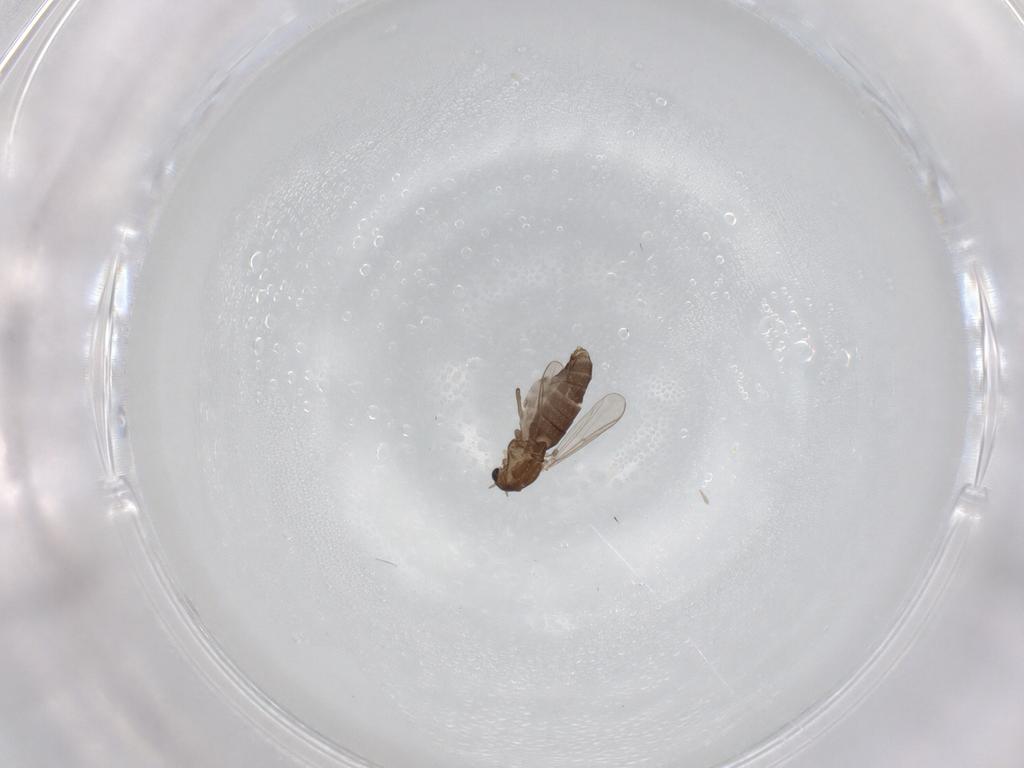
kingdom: Animalia
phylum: Arthropoda
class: Insecta
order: Diptera
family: Chironomidae
